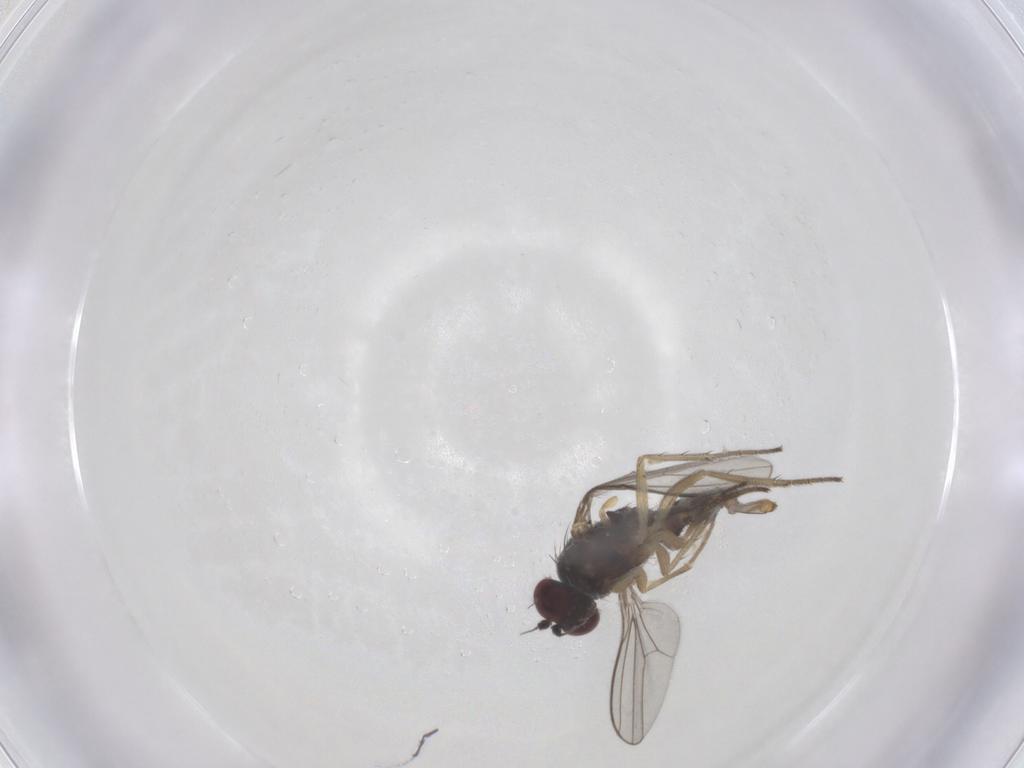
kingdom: Animalia
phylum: Arthropoda
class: Insecta
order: Diptera
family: Dolichopodidae
